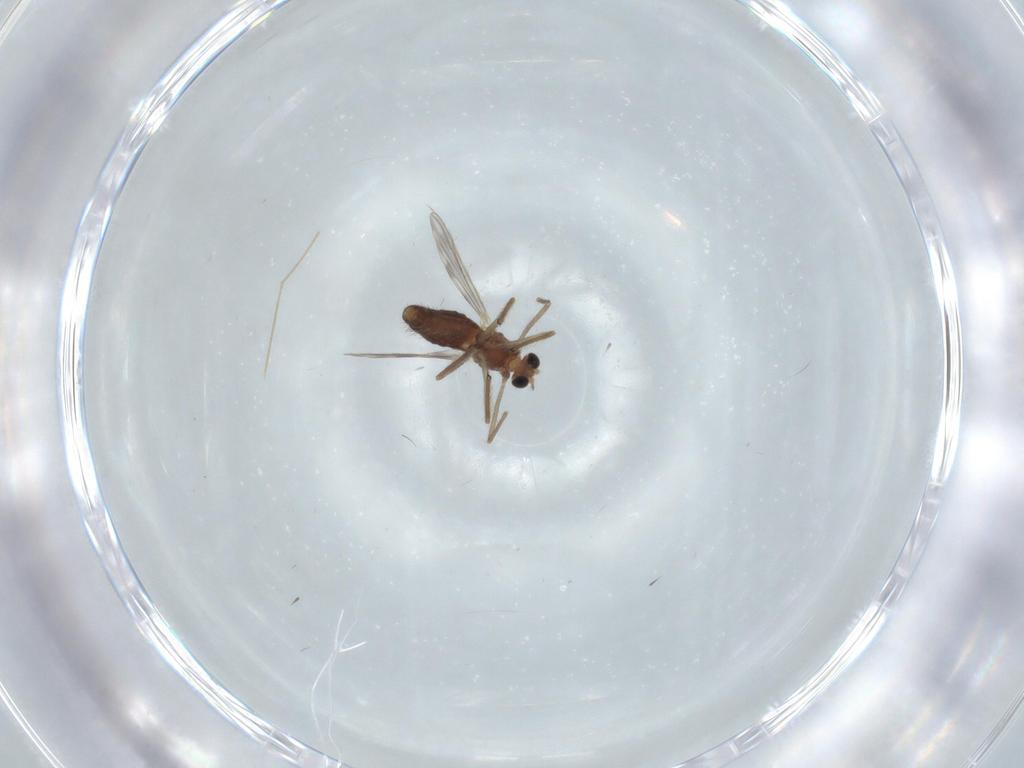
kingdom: Animalia
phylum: Arthropoda
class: Insecta
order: Diptera
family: Chironomidae
